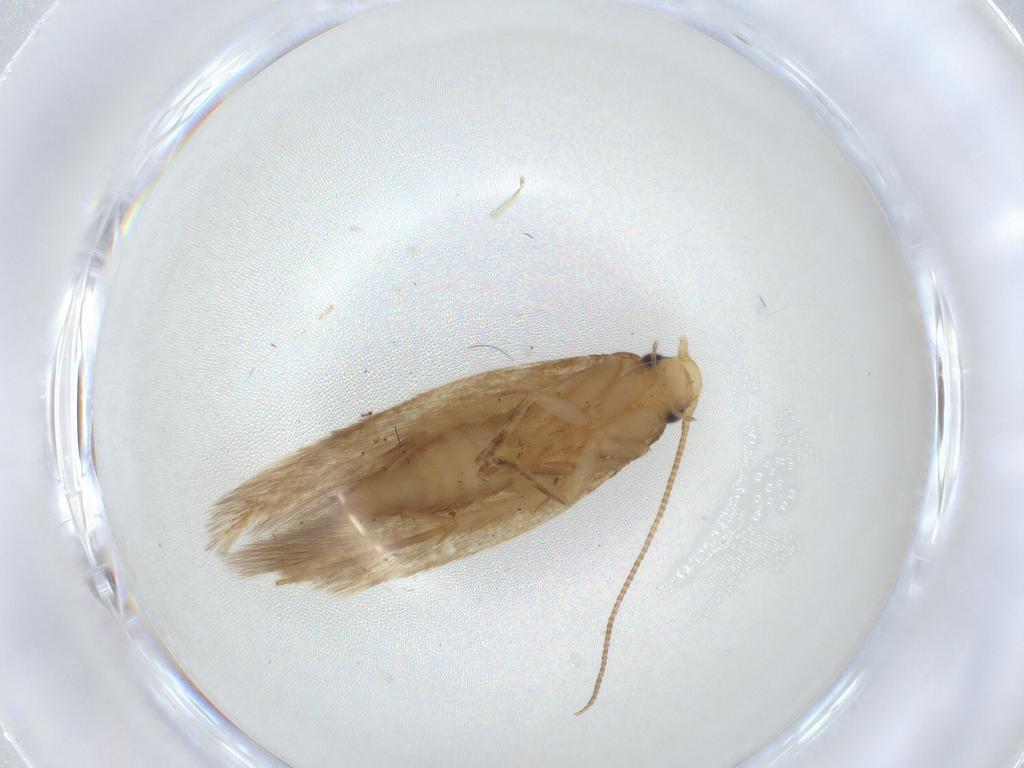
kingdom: Animalia
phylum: Arthropoda
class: Insecta
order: Lepidoptera
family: Tineidae
